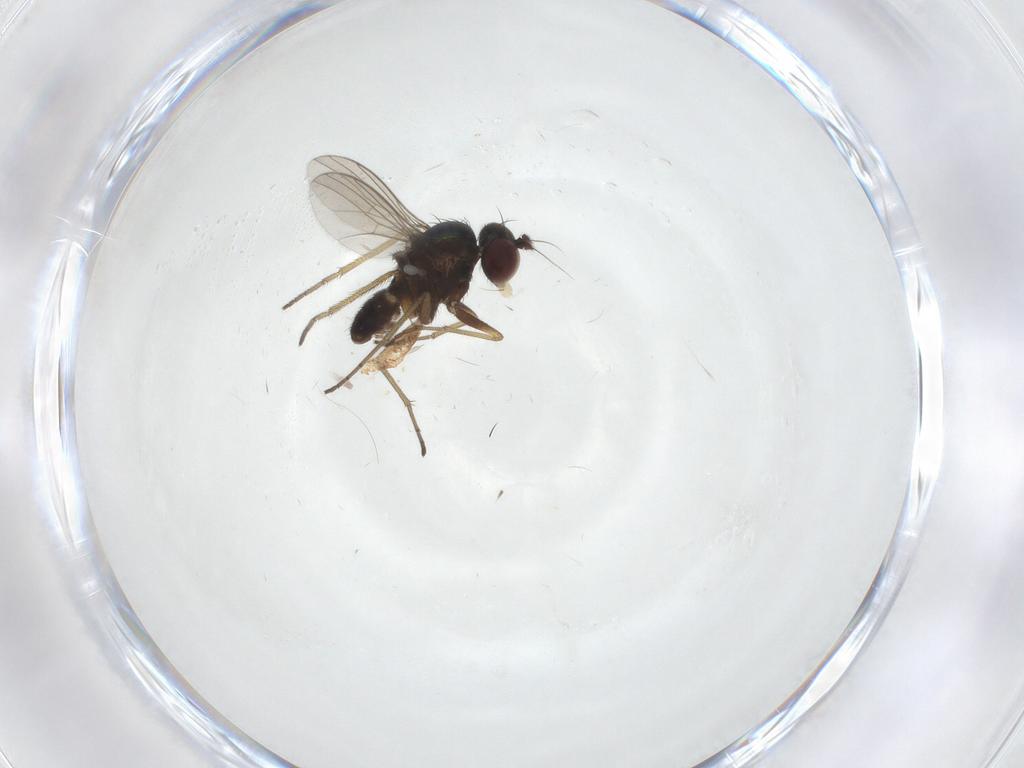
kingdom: Animalia
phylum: Arthropoda
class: Insecta
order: Diptera
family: Dolichopodidae
